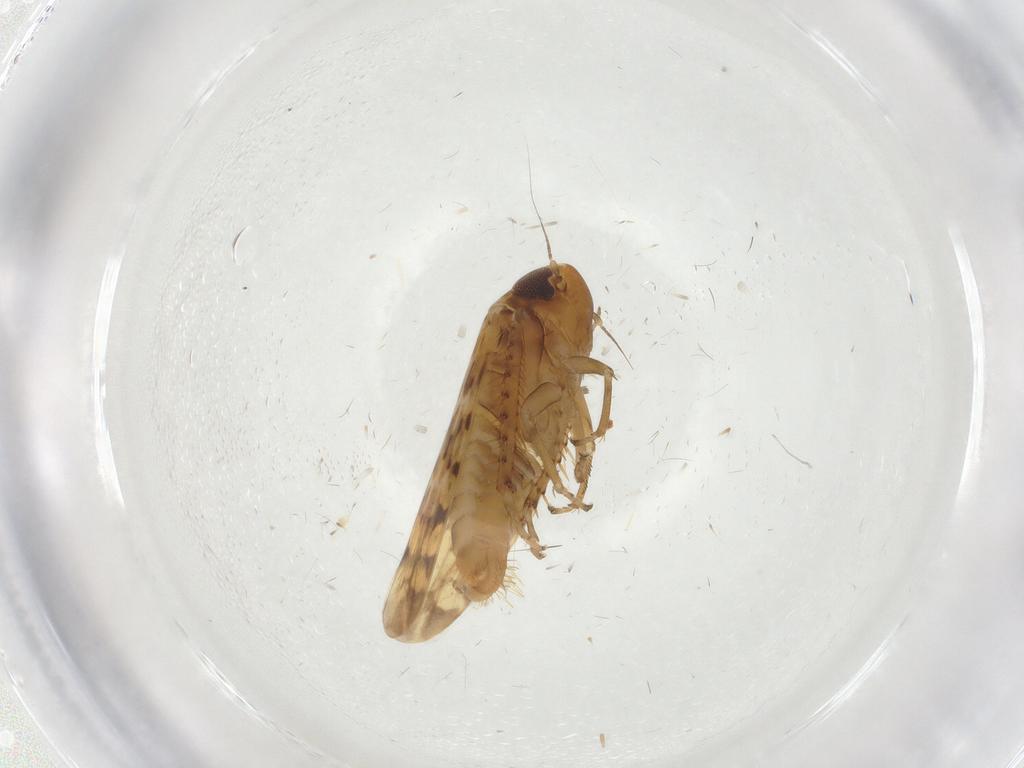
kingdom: Animalia
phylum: Arthropoda
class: Insecta
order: Hemiptera
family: Cicadellidae
